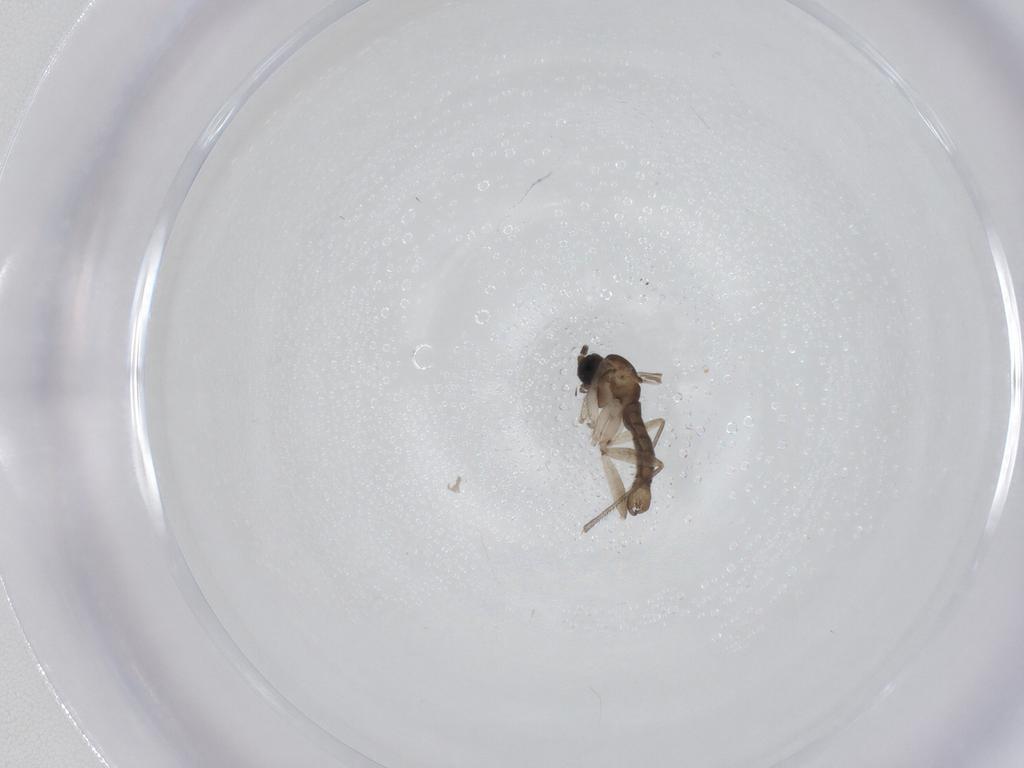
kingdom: Animalia
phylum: Arthropoda
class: Insecta
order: Diptera
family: Sciaridae
